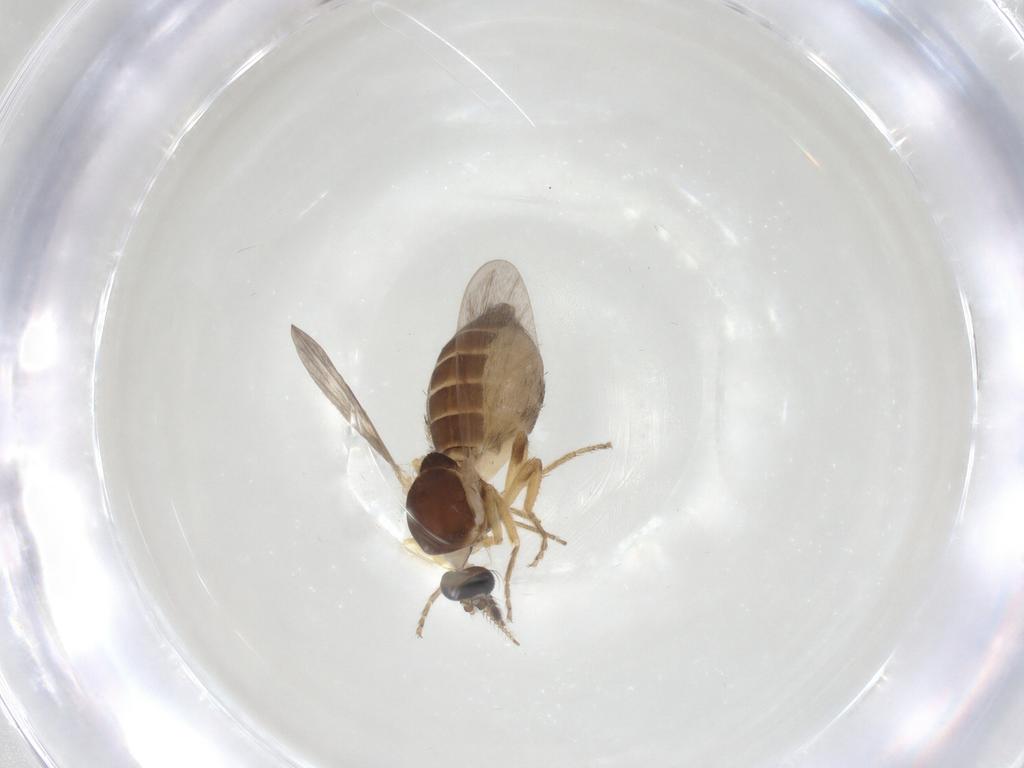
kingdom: Animalia
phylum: Arthropoda
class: Insecta
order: Diptera
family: Ceratopogonidae
